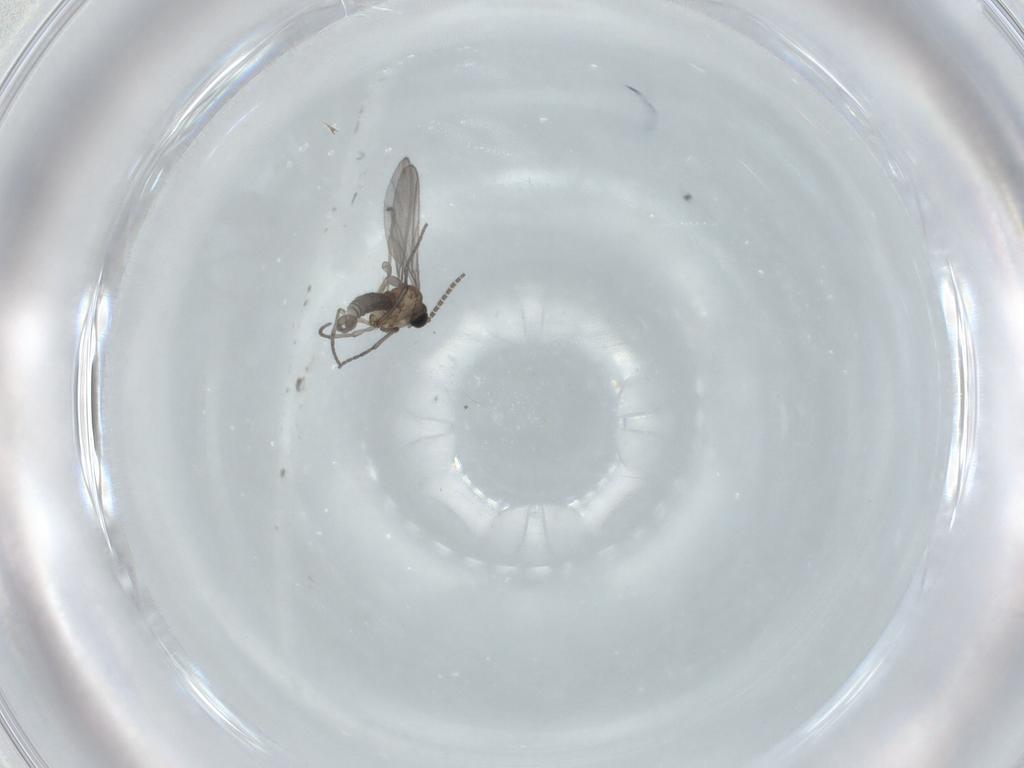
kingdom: Animalia
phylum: Arthropoda
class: Insecta
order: Diptera
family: Sciaridae
